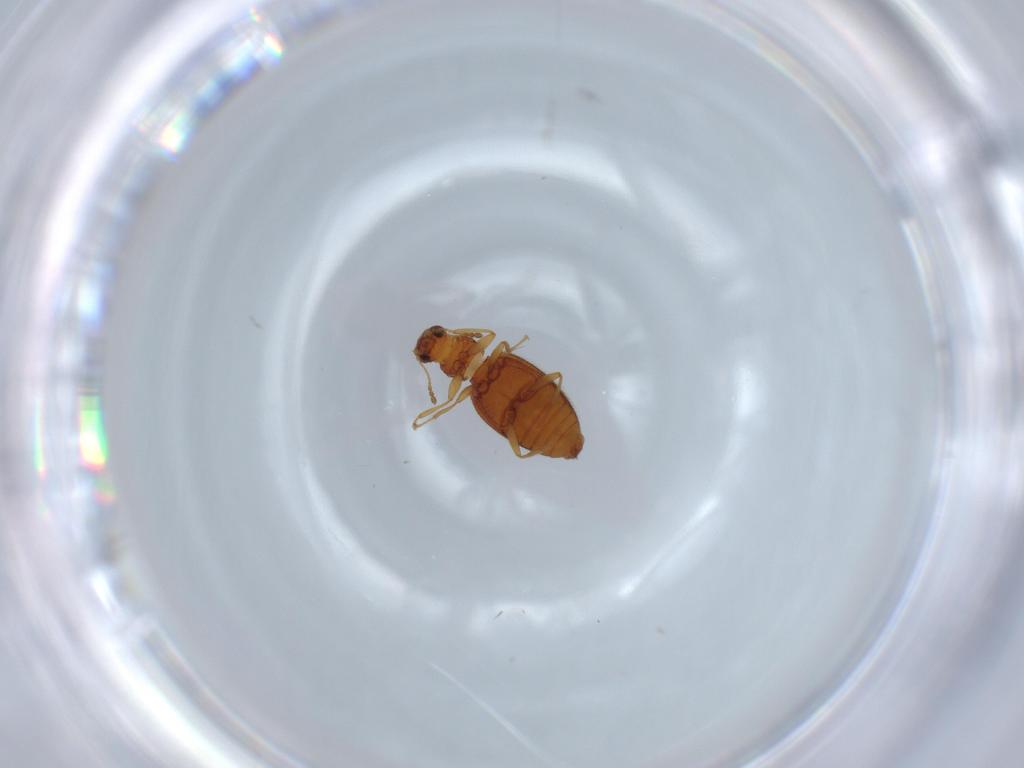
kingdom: Animalia
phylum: Arthropoda
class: Insecta
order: Coleoptera
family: Latridiidae
